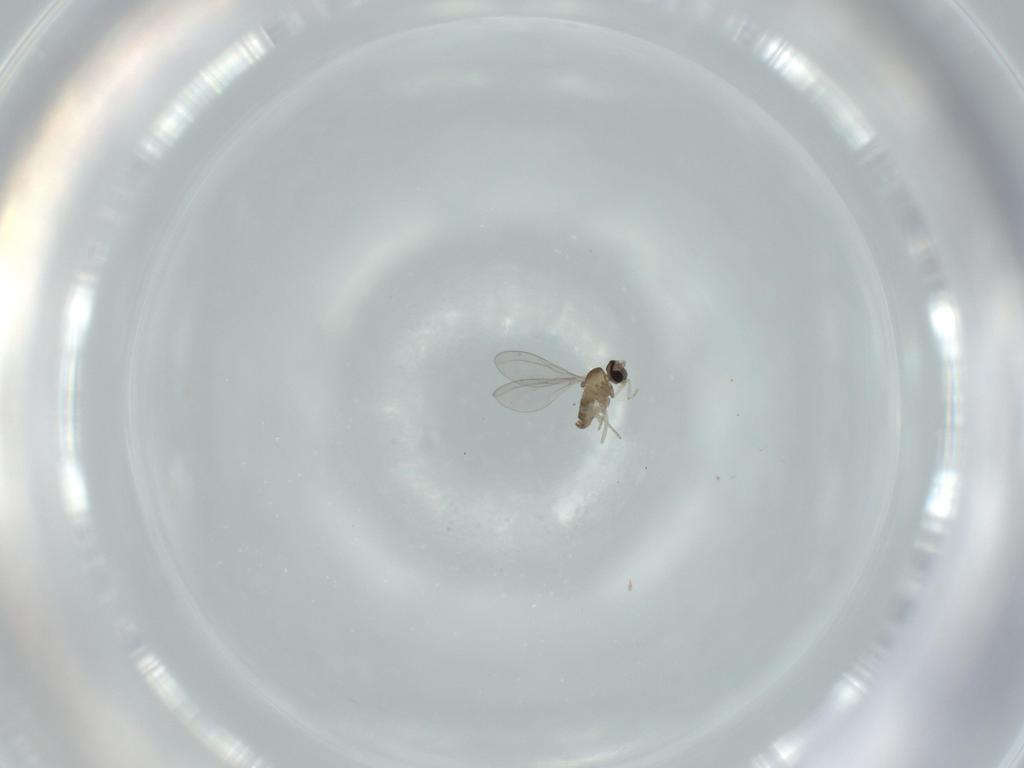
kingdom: Animalia
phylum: Arthropoda
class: Insecta
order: Diptera
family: Cecidomyiidae
